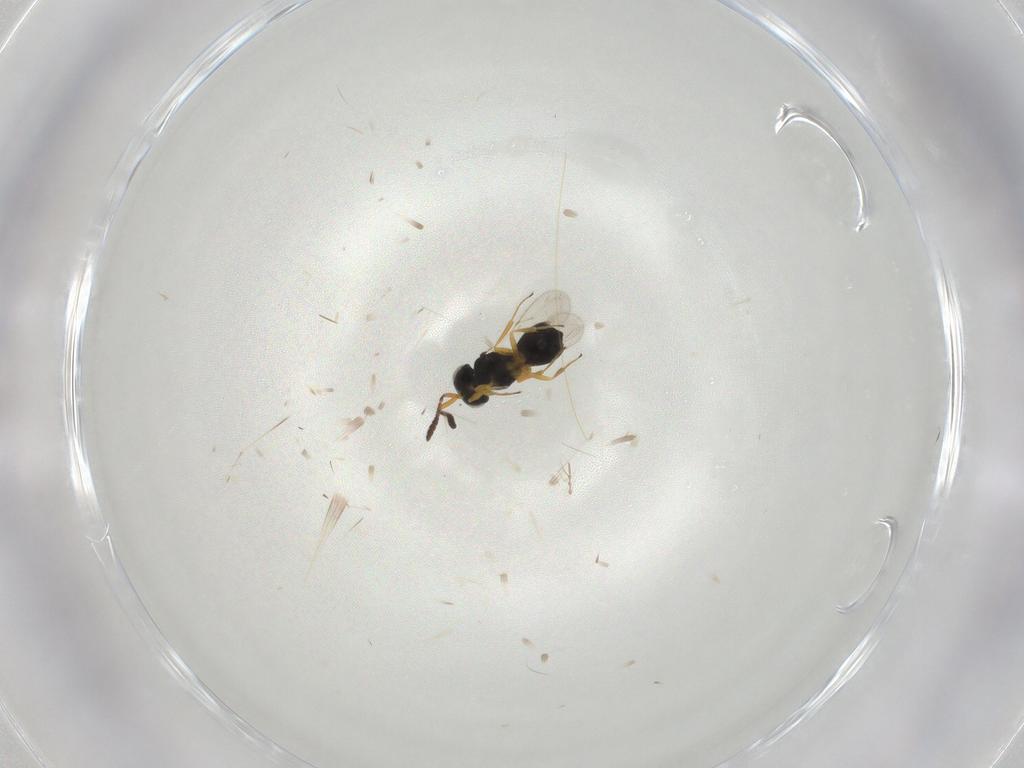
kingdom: Animalia
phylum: Arthropoda
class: Insecta
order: Hymenoptera
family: Scelionidae
